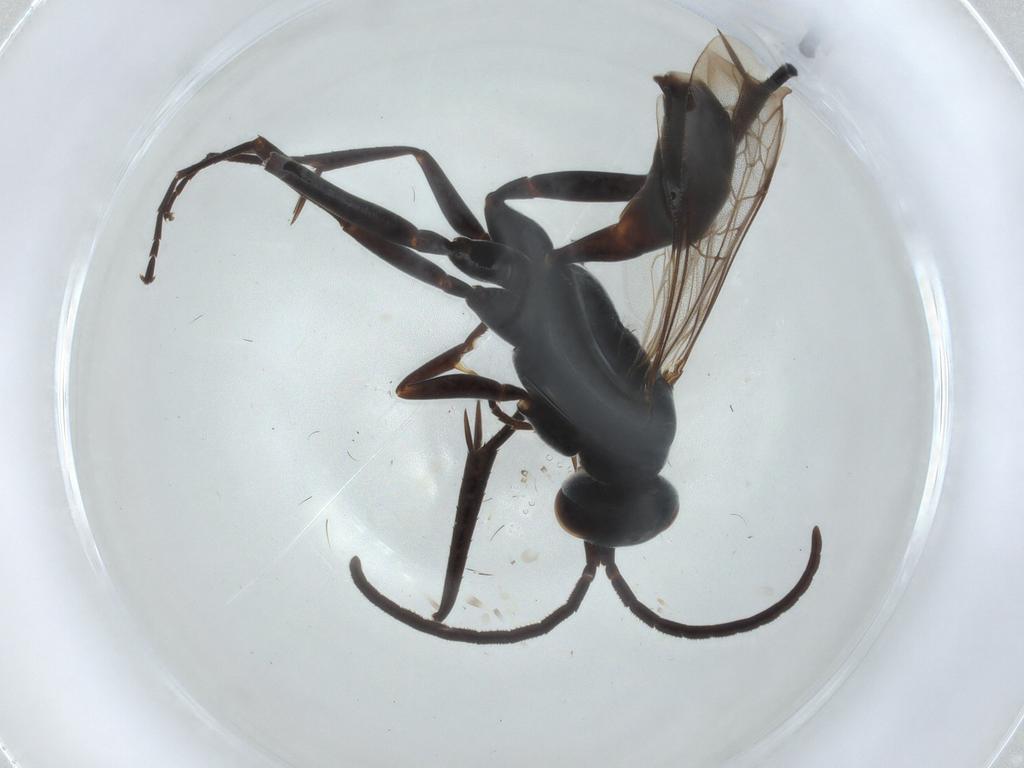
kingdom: Animalia
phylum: Arthropoda
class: Insecta
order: Hymenoptera
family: Pompilidae
